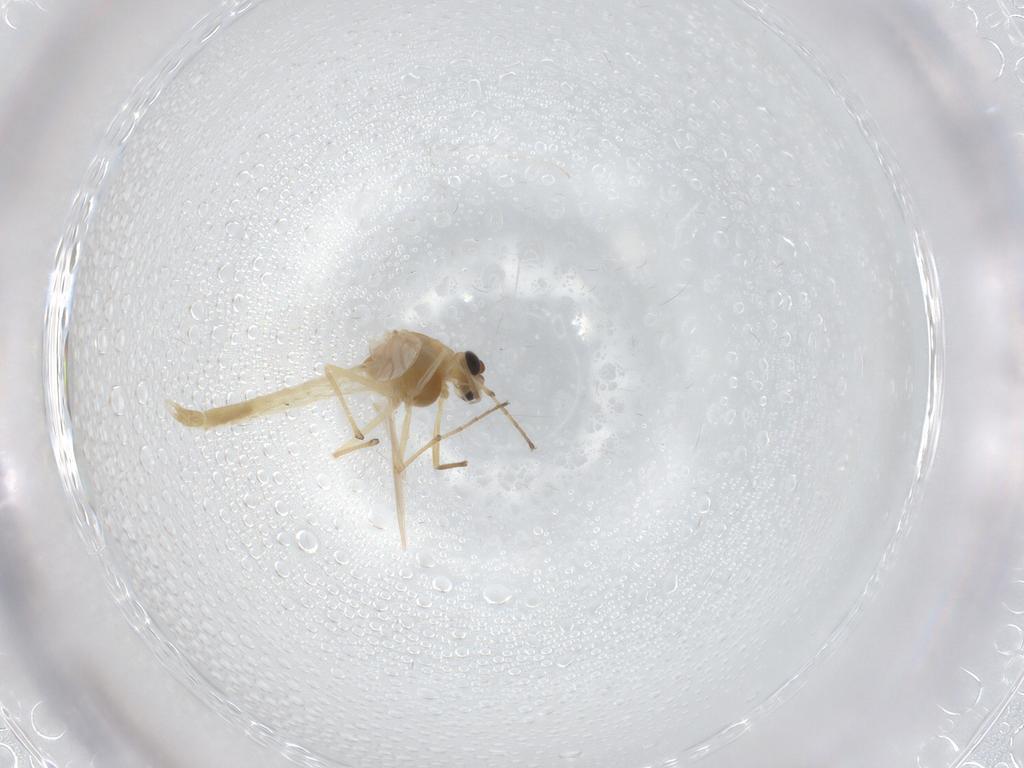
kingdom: Animalia
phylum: Arthropoda
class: Insecta
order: Diptera
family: Chironomidae
